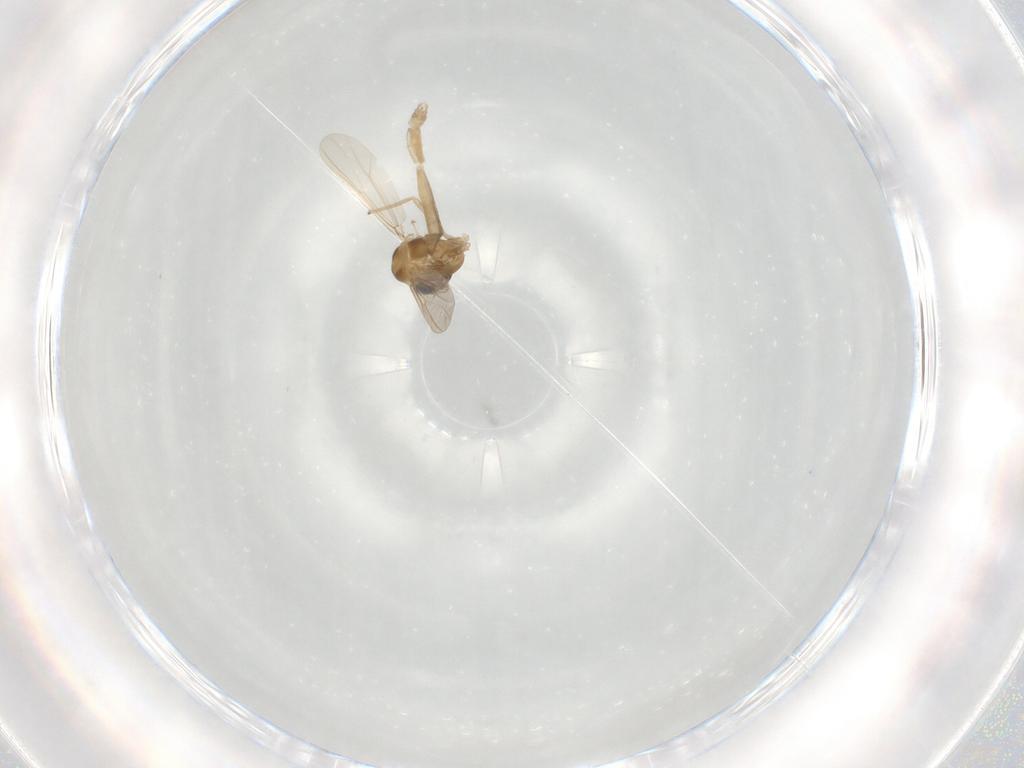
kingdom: Animalia
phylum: Arthropoda
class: Insecta
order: Diptera
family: Chironomidae
